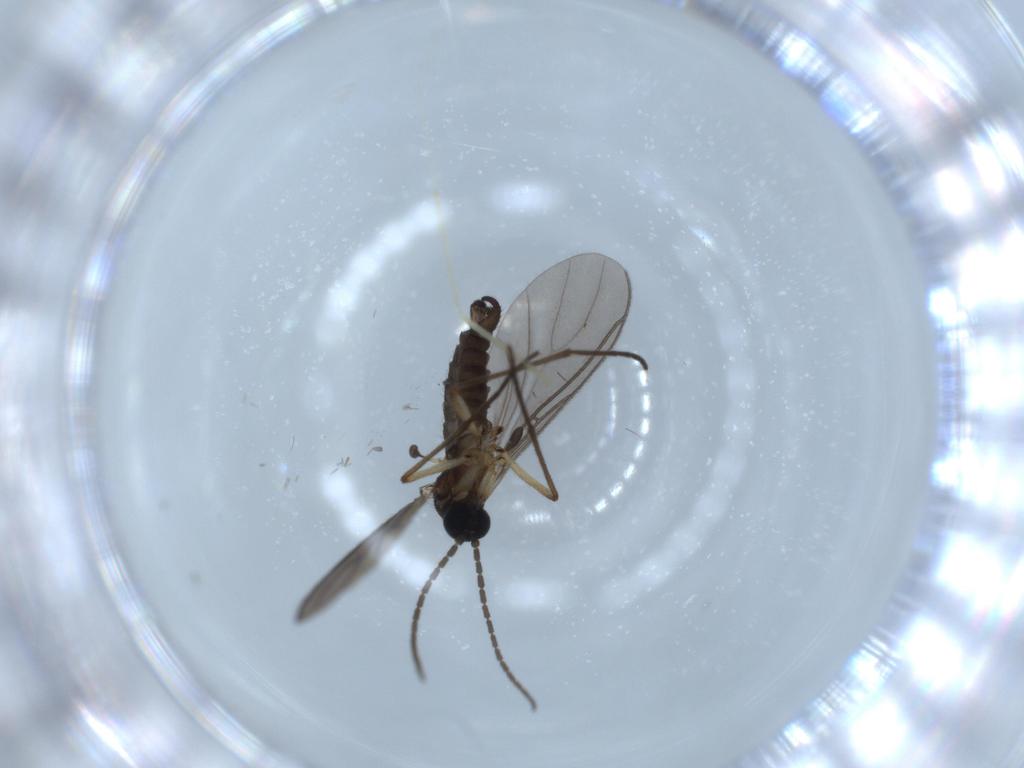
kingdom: Animalia
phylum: Arthropoda
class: Insecta
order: Diptera
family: Sciaridae
